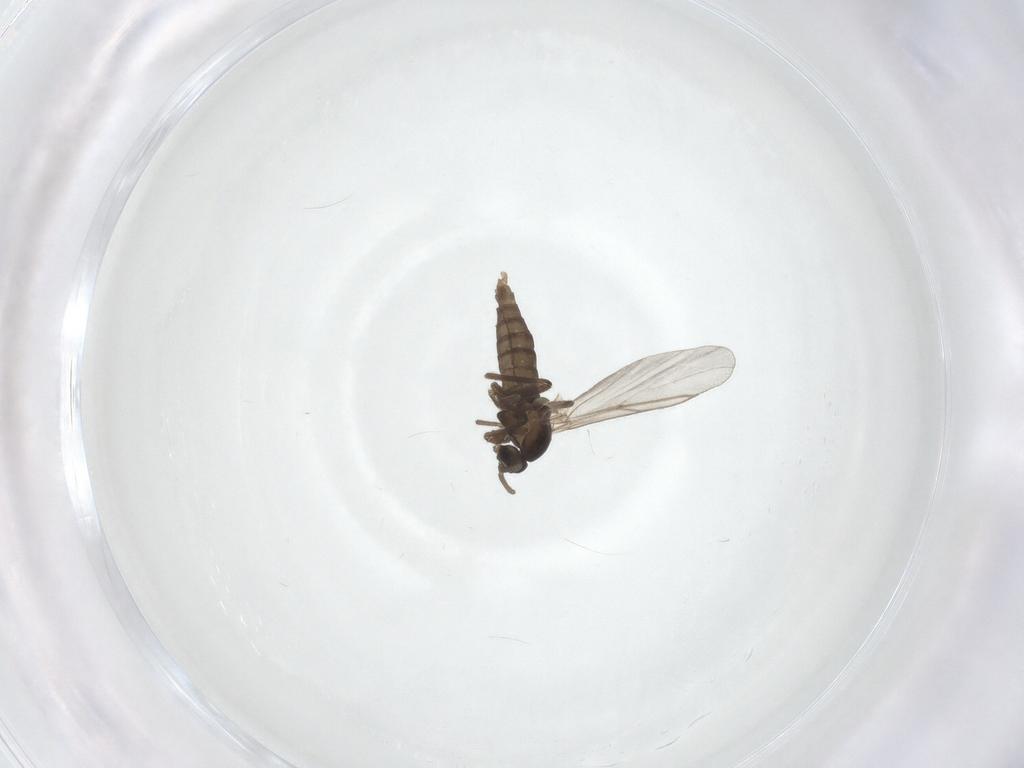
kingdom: Animalia
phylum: Arthropoda
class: Insecta
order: Diptera
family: Cecidomyiidae
